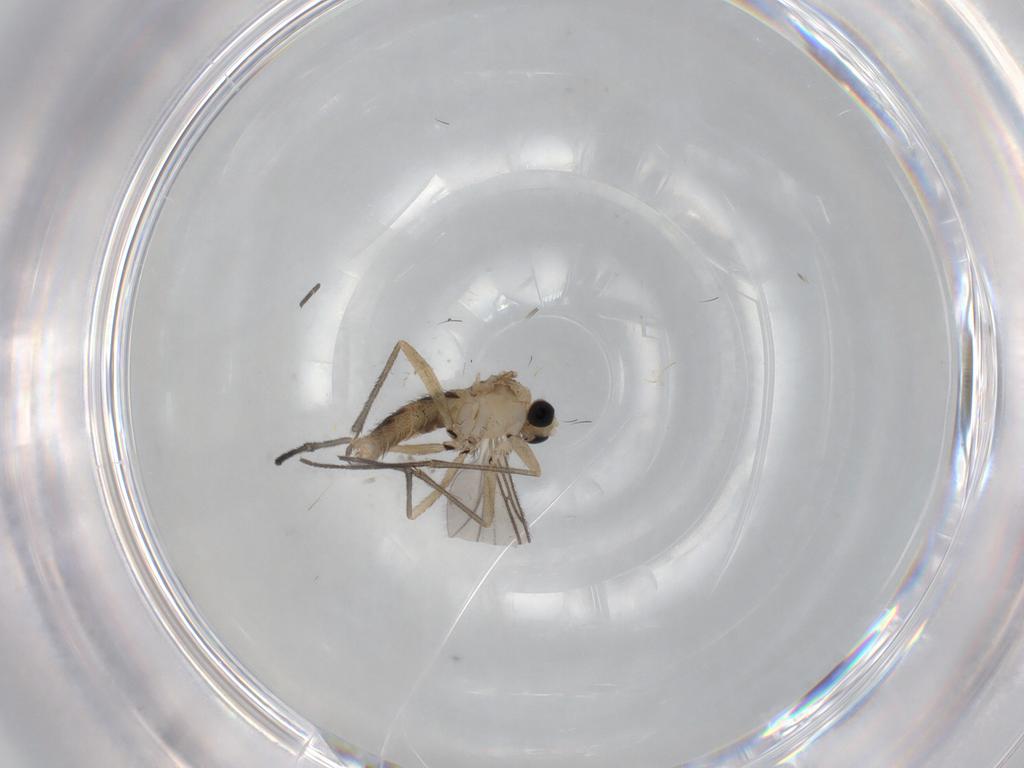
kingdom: Animalia
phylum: Arthropoda
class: Insecta
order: Diptera
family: Sciaridae
